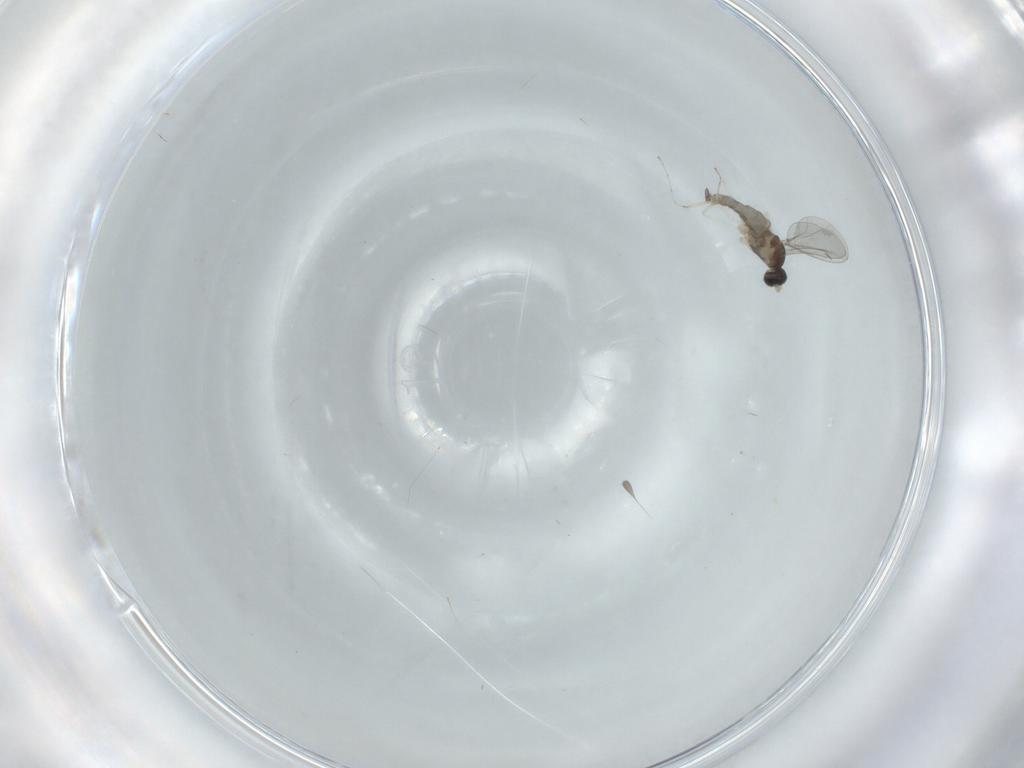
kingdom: Animalia
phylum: Arthropoda
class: Insecta
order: Diptera
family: Cecidomyiidae
